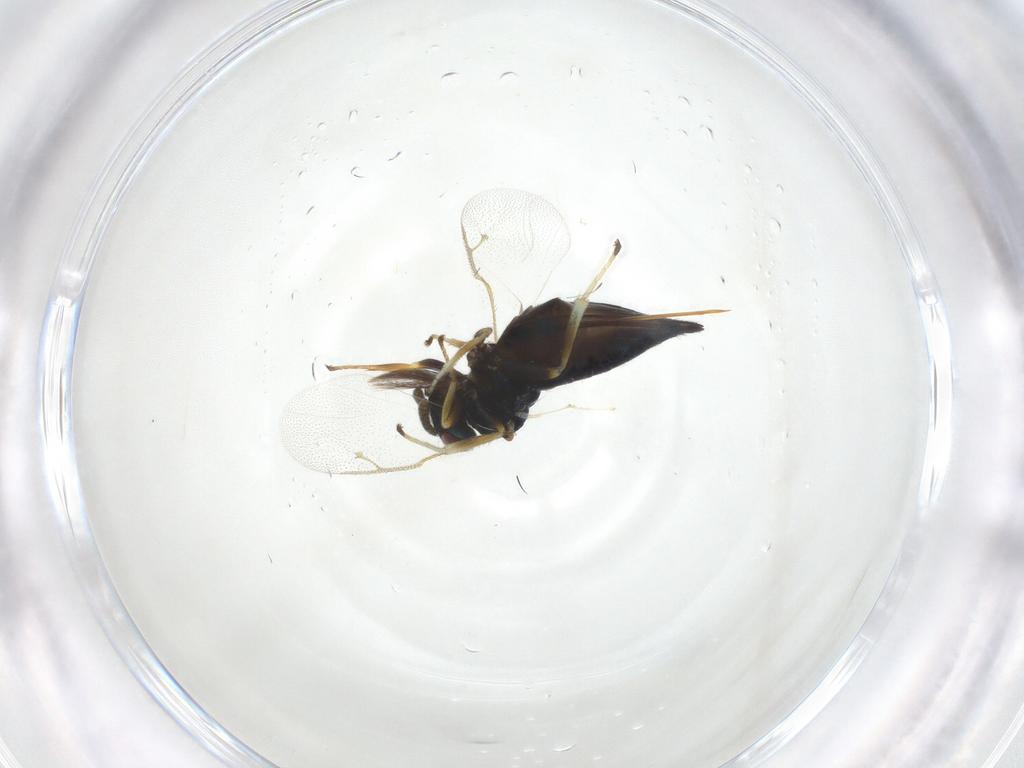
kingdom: Animalia
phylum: Arthropoda
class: Insecta
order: Hymenoptera
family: Pteromalidae
